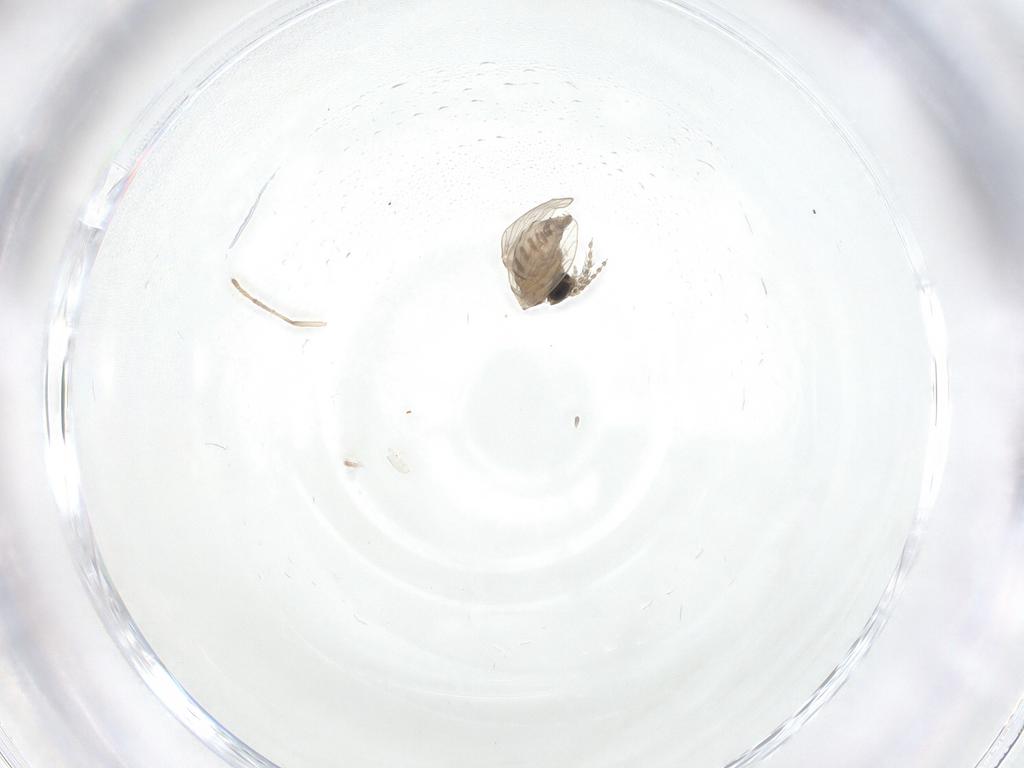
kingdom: Animalia
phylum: Arthropoda
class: Insecta
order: Diptera
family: Psychodidae
